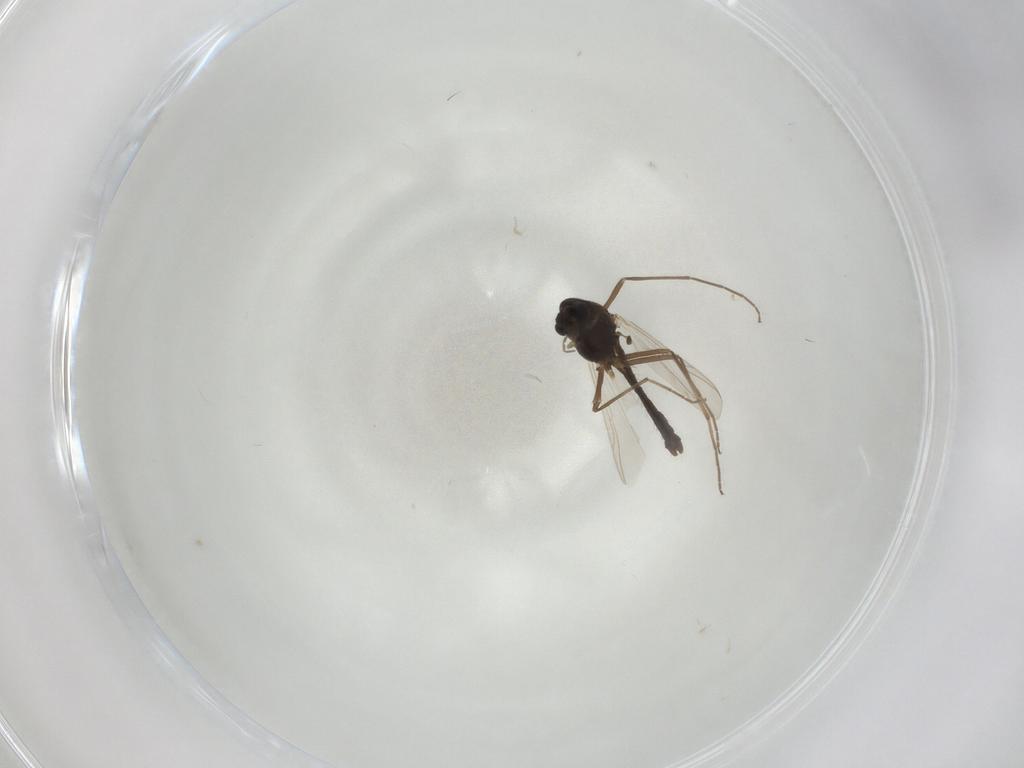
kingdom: Animalia
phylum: Arthropoda
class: Insecta
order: Diptera
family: Chironomidae
